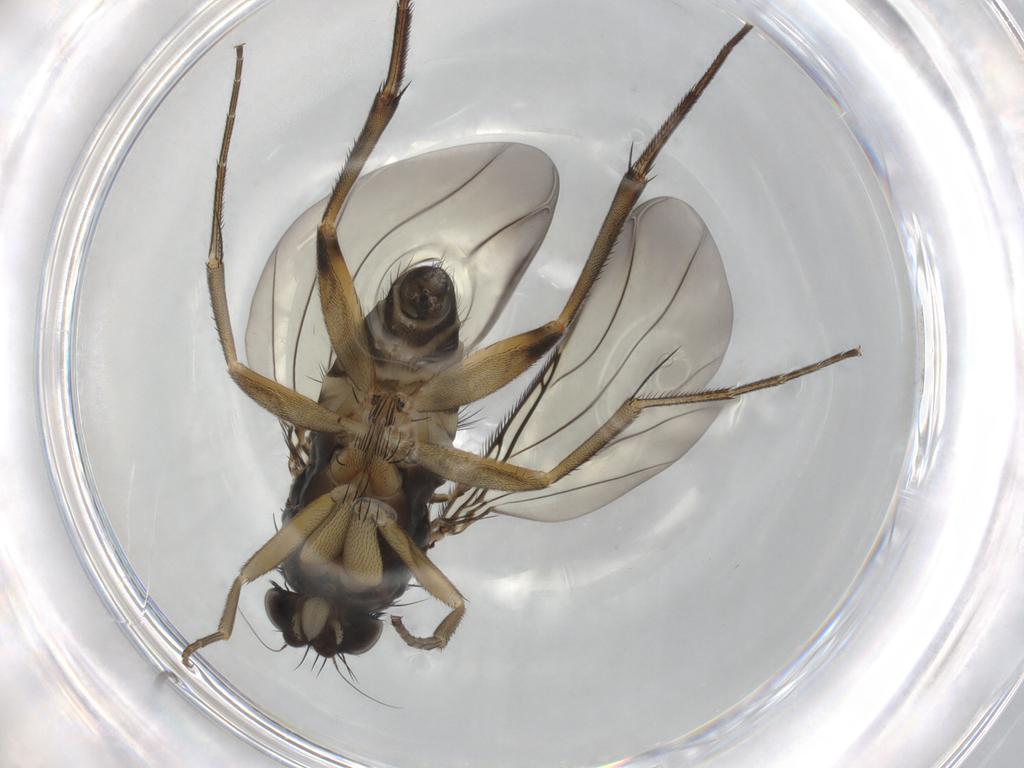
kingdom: Animalia
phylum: Arthropoda
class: Insecta
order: Diptera
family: Phoridae
